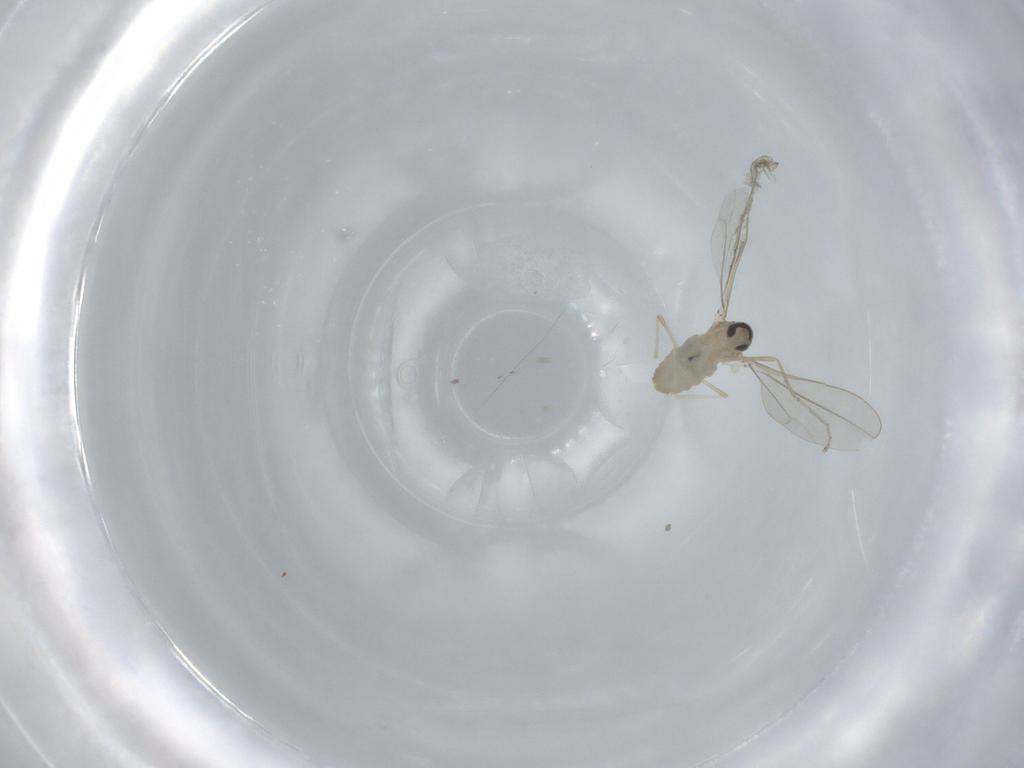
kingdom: Animalia
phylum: Arthropoda
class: Insecta
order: Diptera
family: Cecidomyiidae
